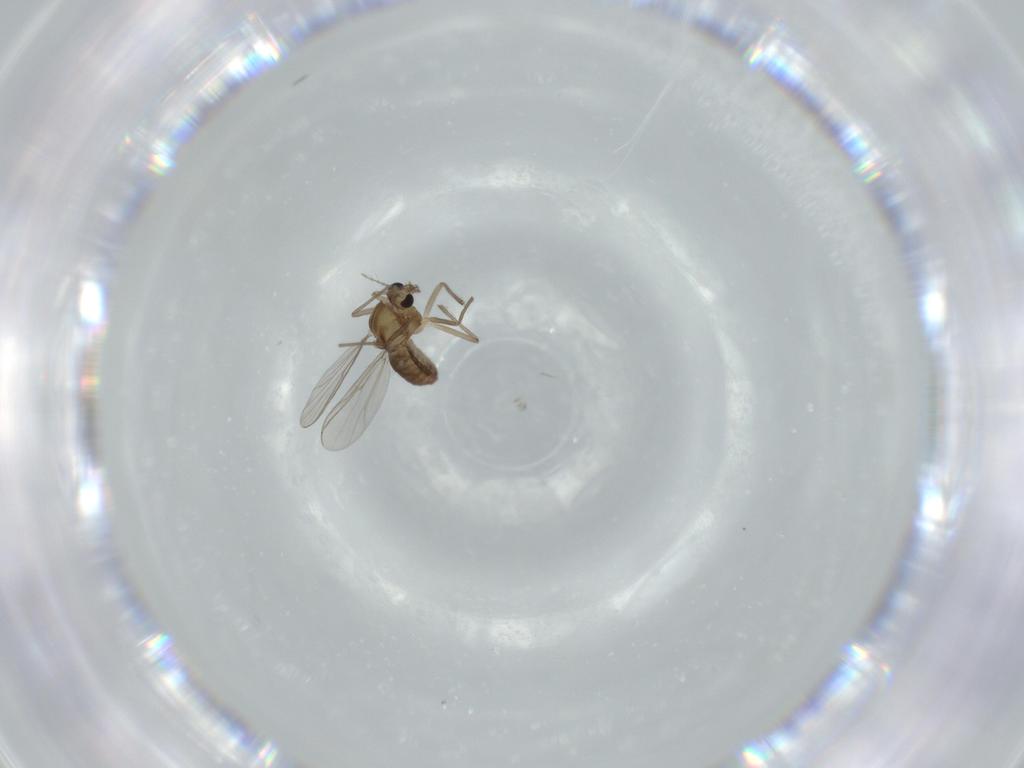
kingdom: Animalia
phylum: Arthropoda
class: Insecta
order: Diptera
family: Chironomidae
